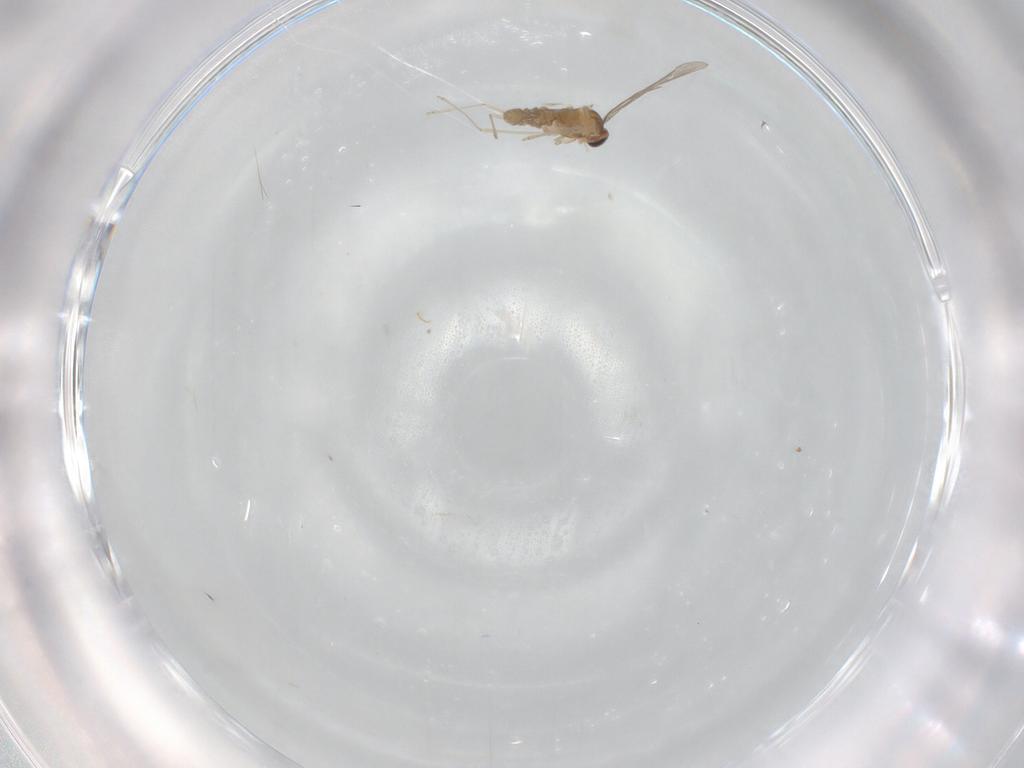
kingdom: Animalia
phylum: Arthropoda
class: Insecta
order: Diptera
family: Cecidomyiidae
